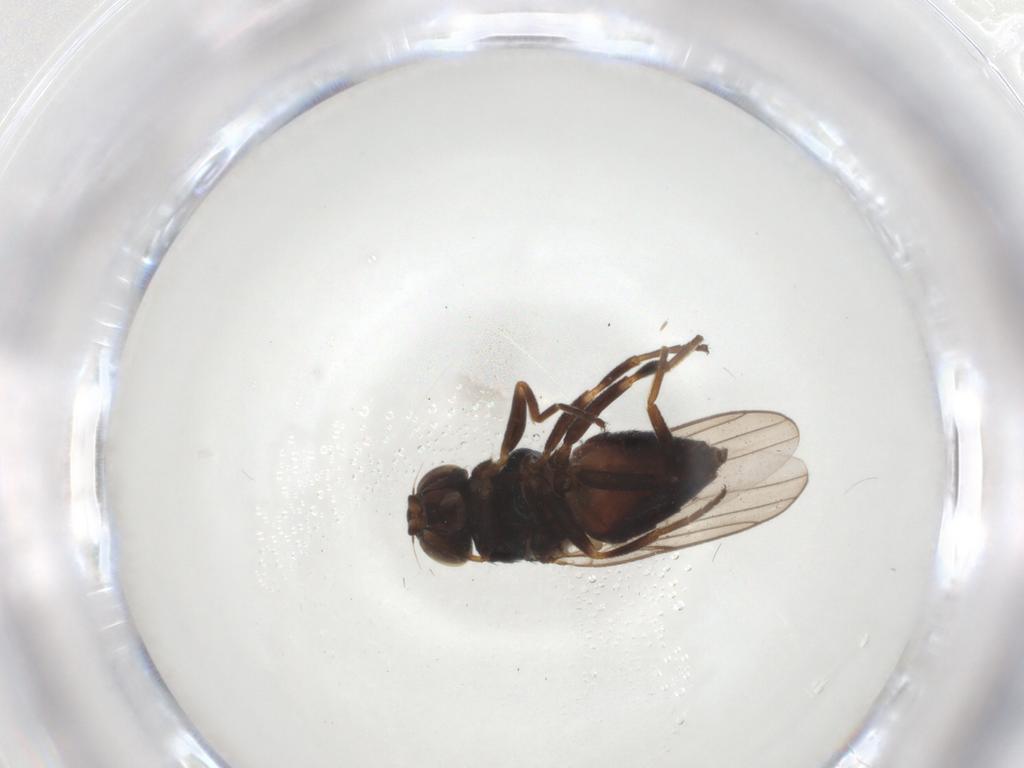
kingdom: Animalia
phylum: Arthropoda
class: Insecta
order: Diptera
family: Chloropidae
